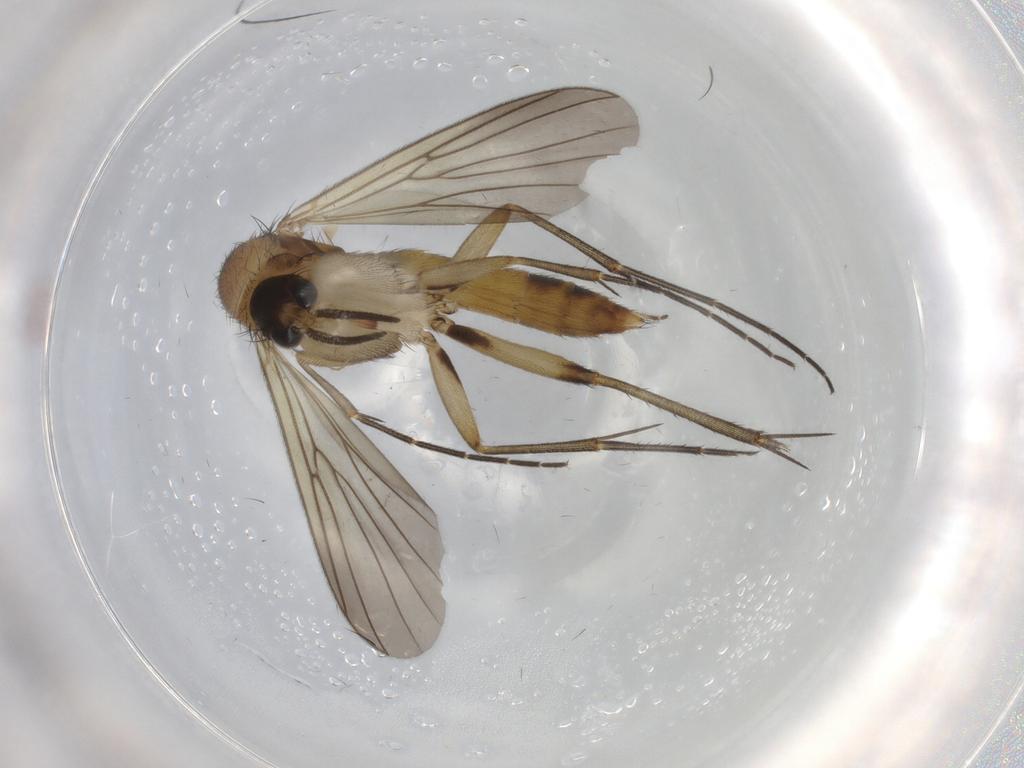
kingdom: Animalia
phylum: Arthropoda
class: Insecta
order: Diptera
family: Mycetophilidae
